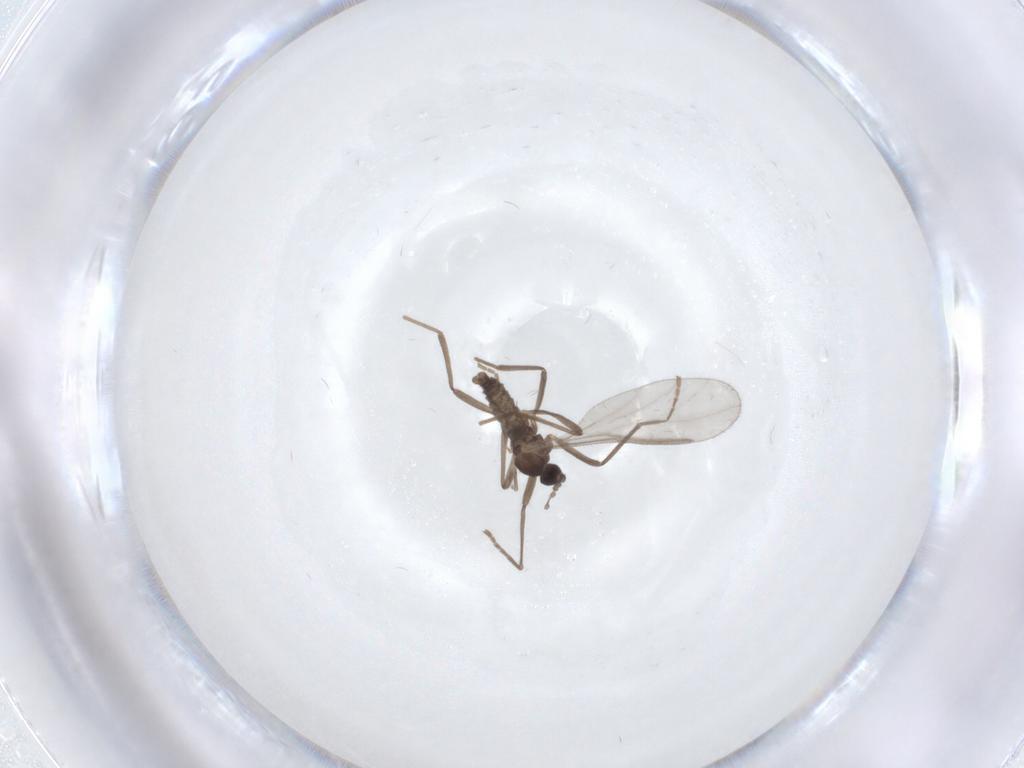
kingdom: Animalia
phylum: Arthropoda
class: Insecta
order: Diptera
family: Cecidomyiidae
